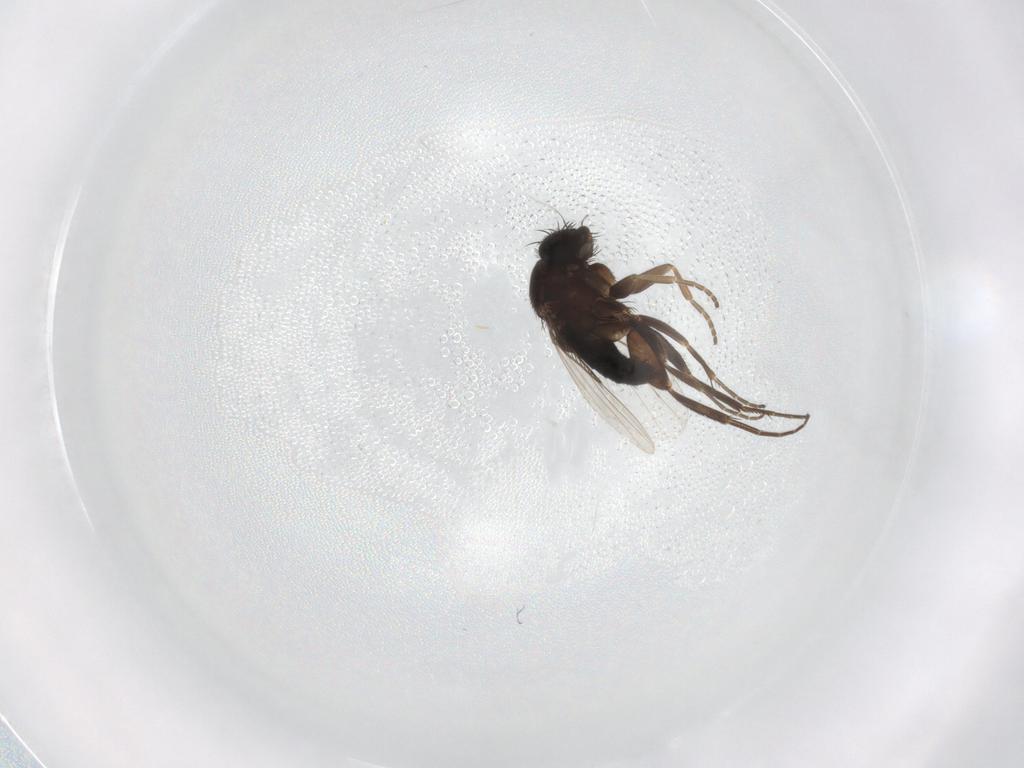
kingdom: Animalia
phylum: Arthropoda
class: Insecta
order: Diptera
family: Phoridae
